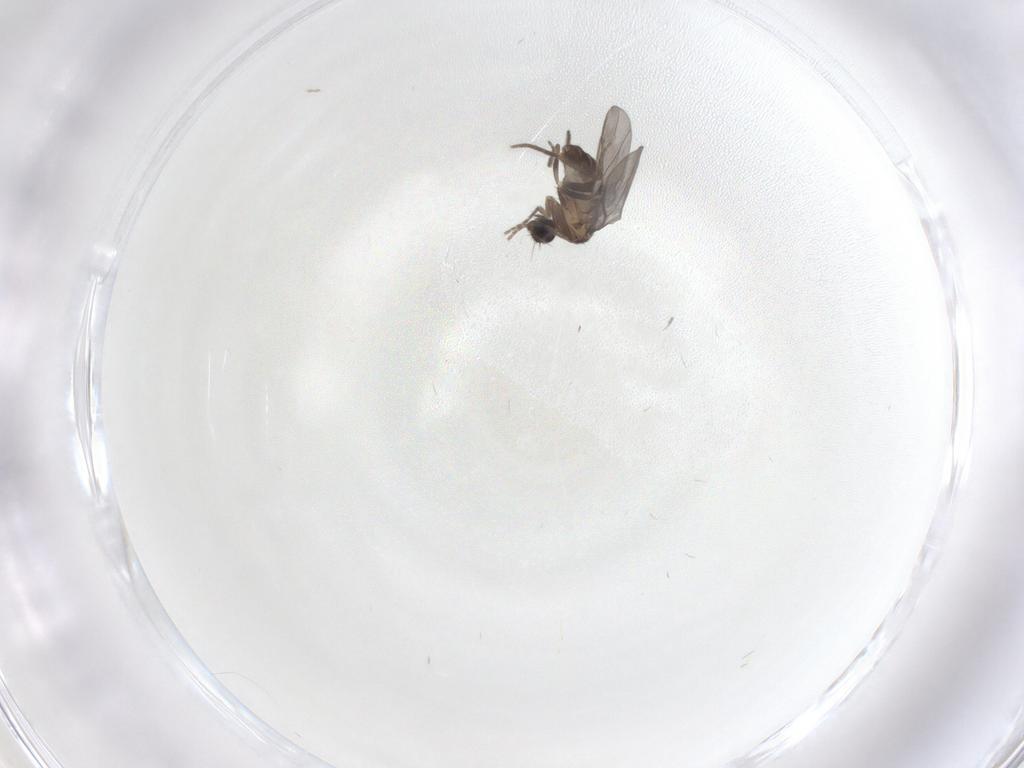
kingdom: Animalia
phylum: Arthropoda
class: Insecta
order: Diptera
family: Phoridae
